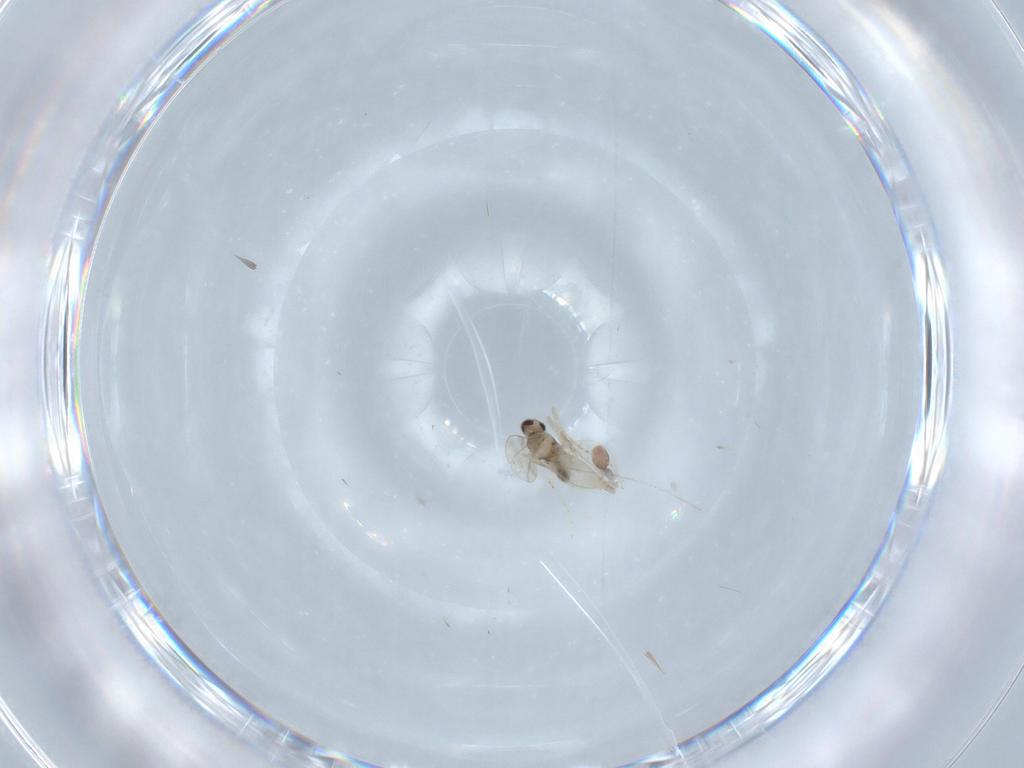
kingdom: Animalia
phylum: Arthropoda
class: Insecta
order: Diptera
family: Cecidomyiidae
